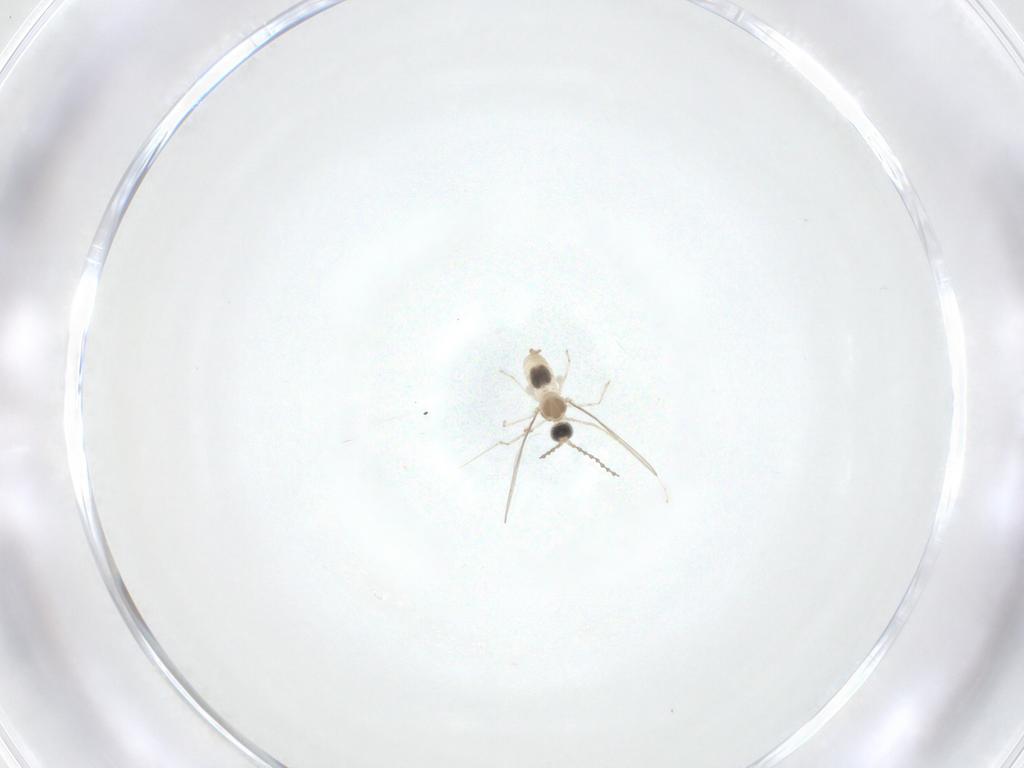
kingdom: Animalia
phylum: Arthropoda
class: Insecta
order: Diptera
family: Cecidomyiidae
